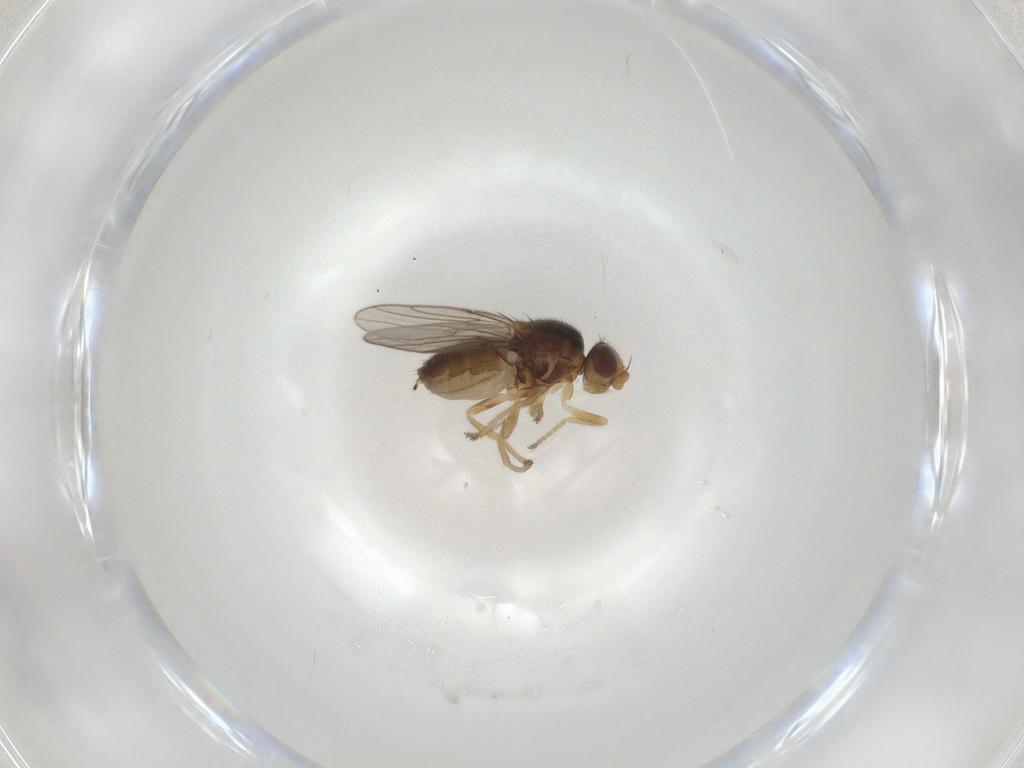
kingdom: Animalia
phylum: Arthropoda
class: Insecta
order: Diptera
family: Chloropidae
